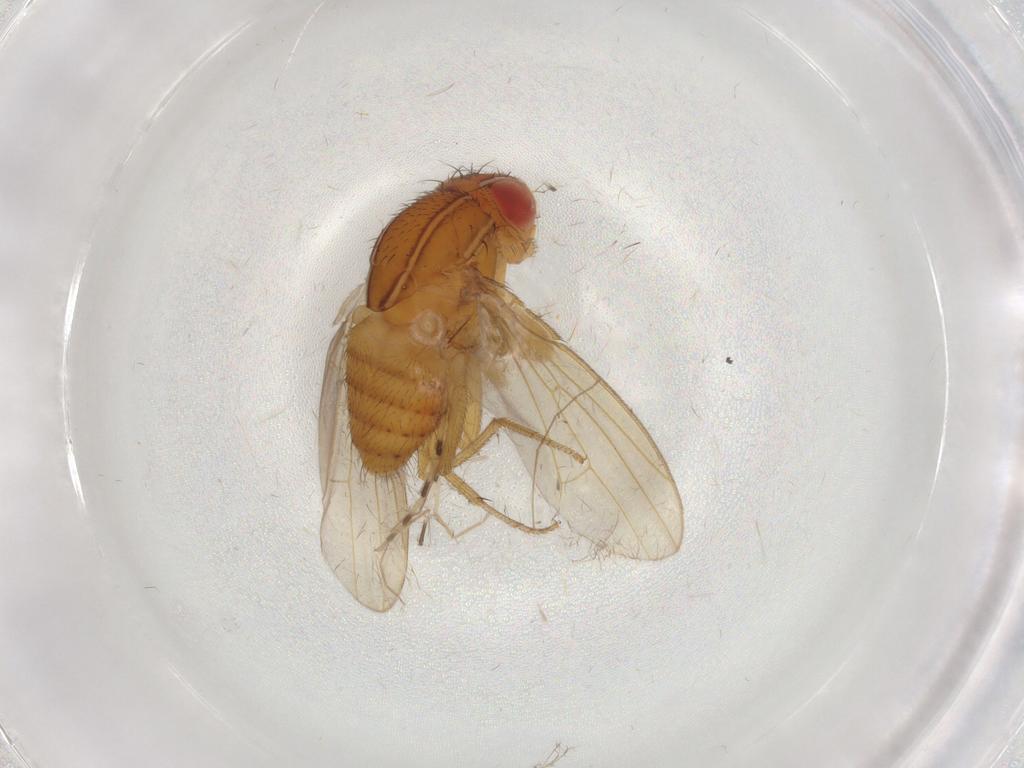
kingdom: Animalia
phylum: Arthropoda
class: Insecta
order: Diptera
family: Drosophilidae
